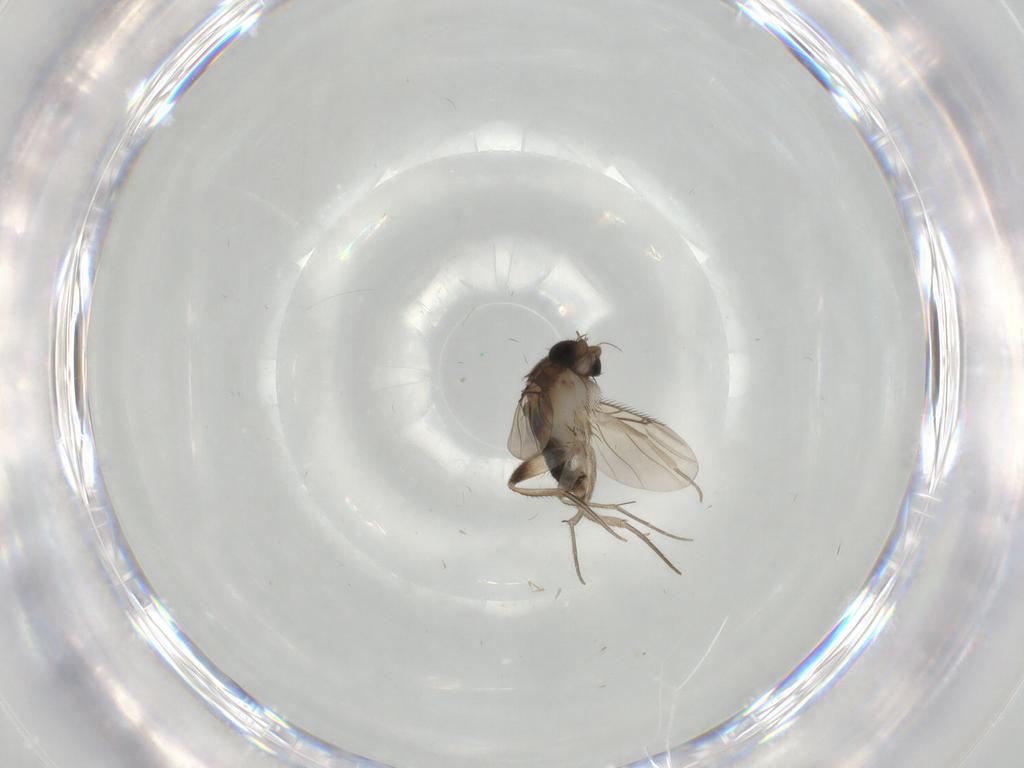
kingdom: Animalia
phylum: Arthropoda
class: Insecta
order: Diptera
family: Phoridae
